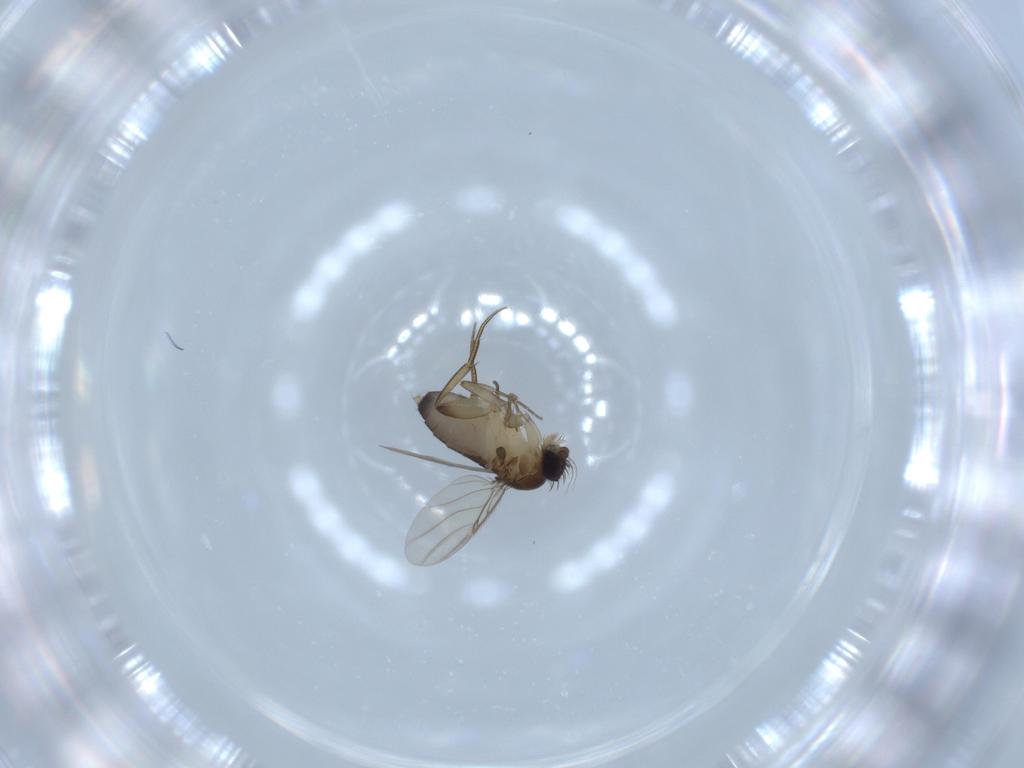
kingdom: Animalia
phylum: Arthropoda
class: Insecta
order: Diptera
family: Phoridae
